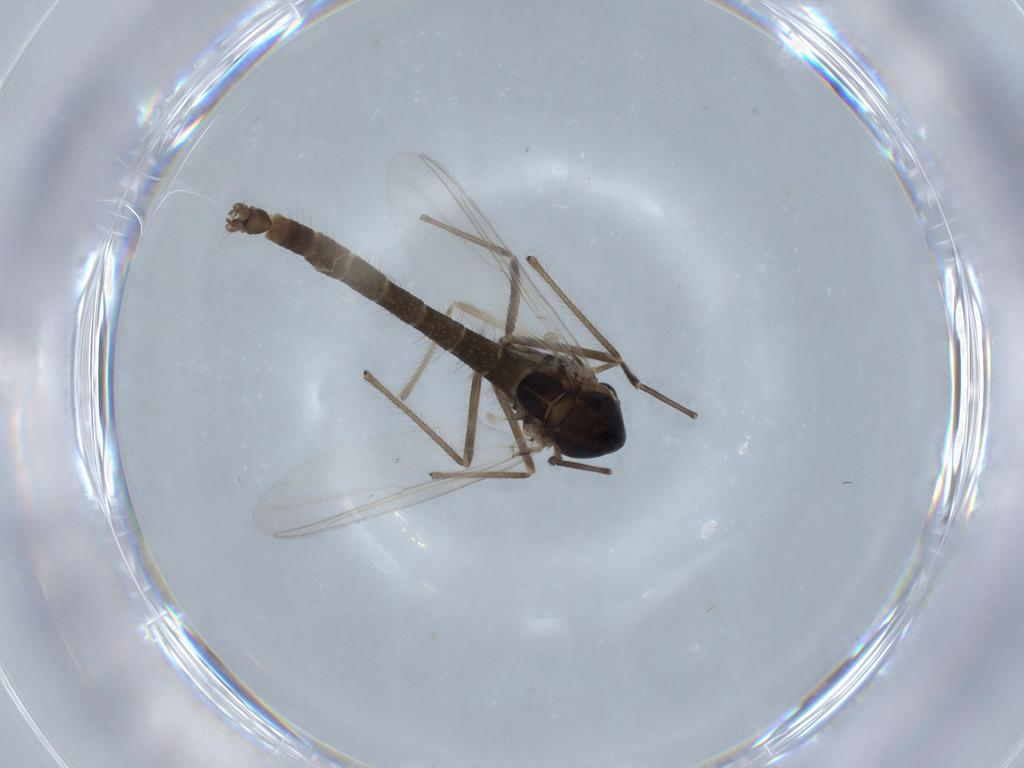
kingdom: Animalia
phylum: Arthropoda
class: Insecta
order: Diptera
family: Chironomidae
